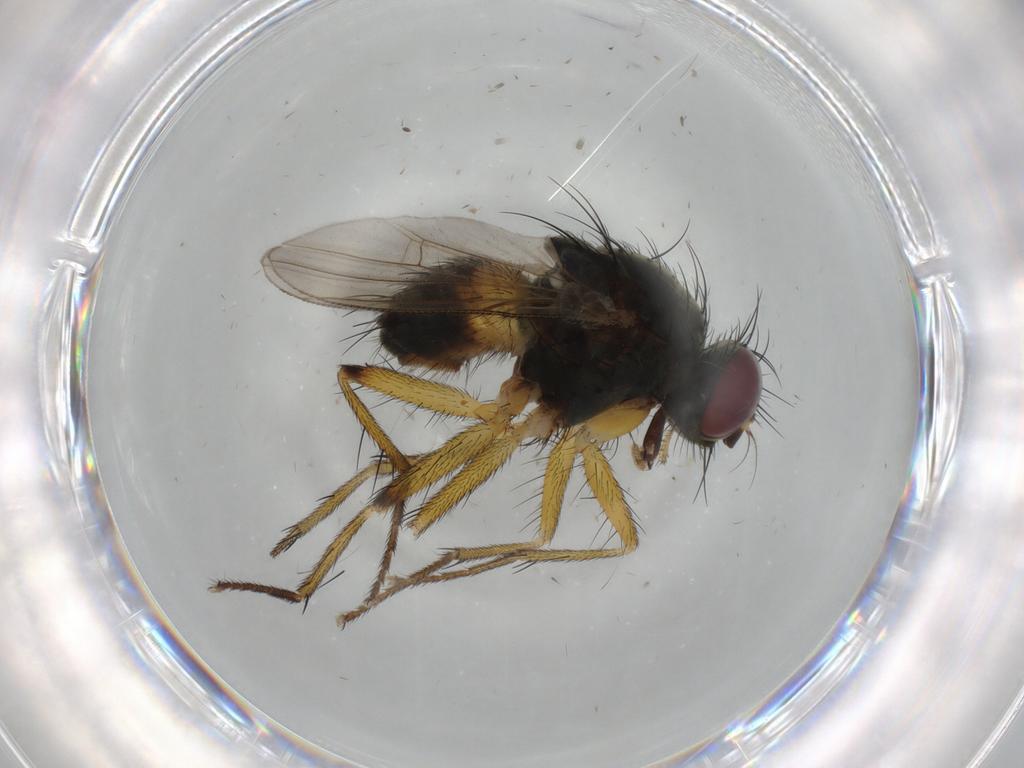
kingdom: Animalia
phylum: Arthropoda
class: Insecta
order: Diptera
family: Muscidae
